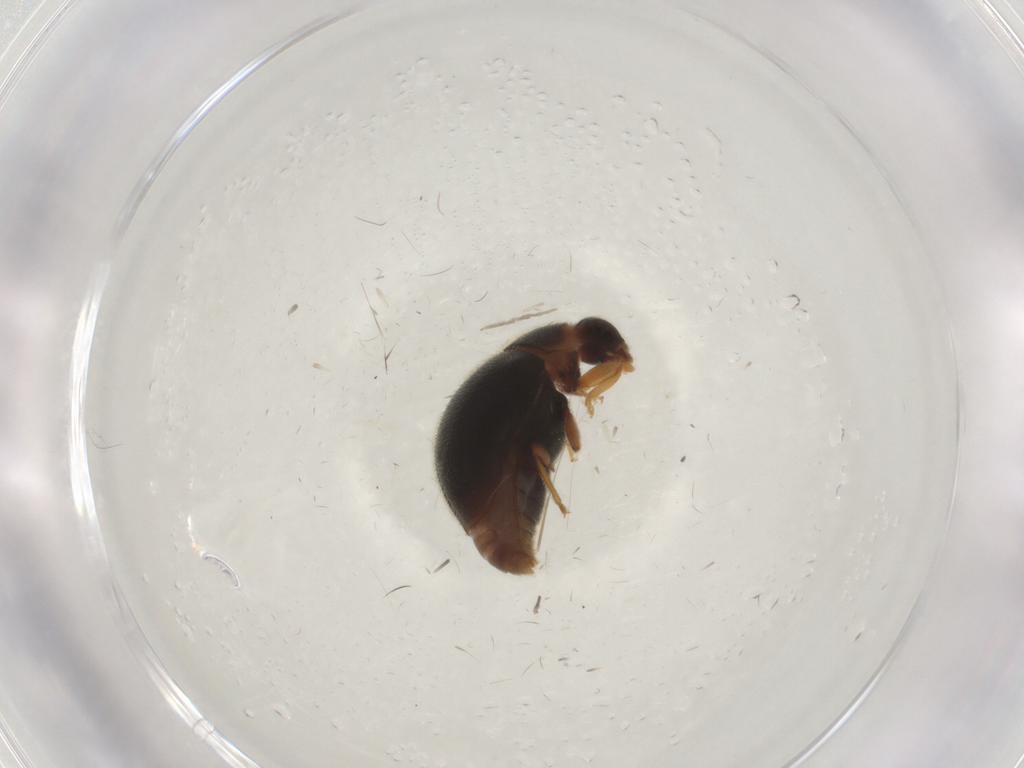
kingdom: Animalia
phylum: Arthropoda
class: Insecta
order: Coleoptera
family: Coccinellidae
